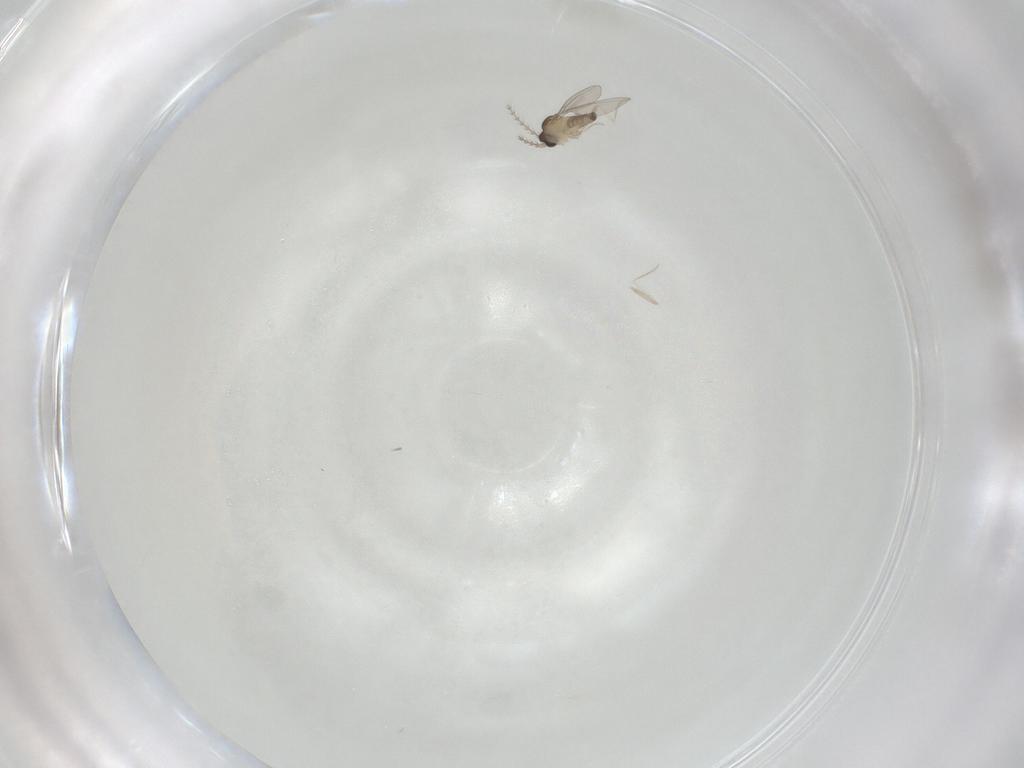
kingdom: Animalia
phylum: Arthropoda
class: Insecta
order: Diptera
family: Cecidomyiidae
